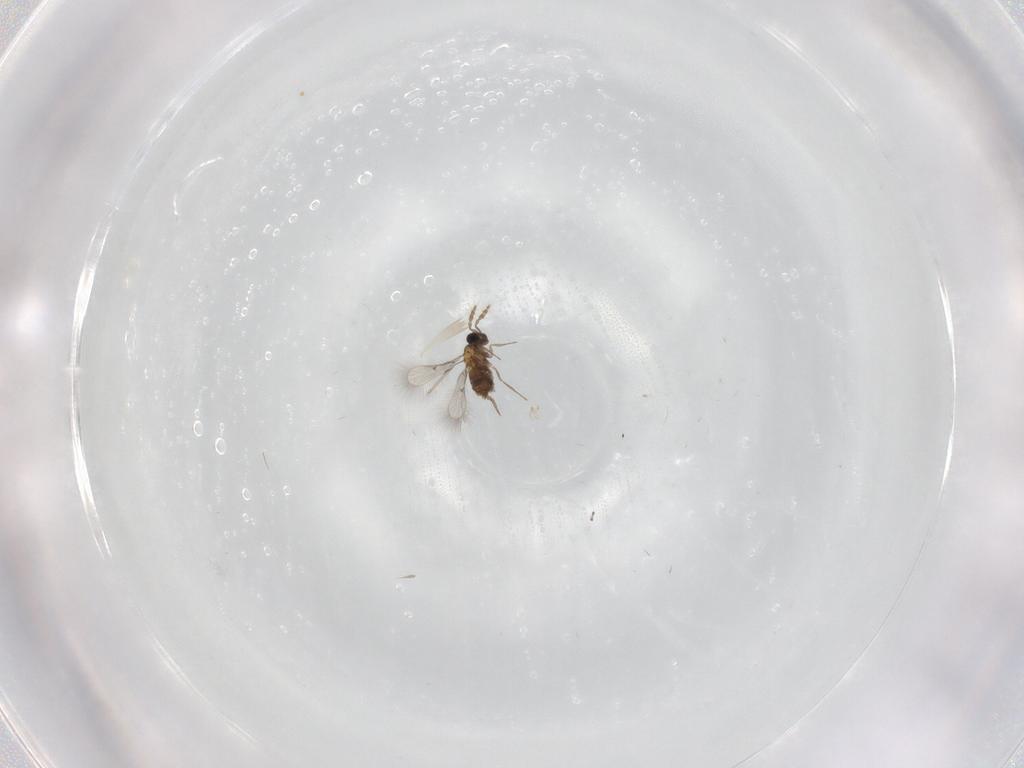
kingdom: Animalia
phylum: Arthropoda
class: Insecta
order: Hymenoptera
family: Trichogrammatidae
